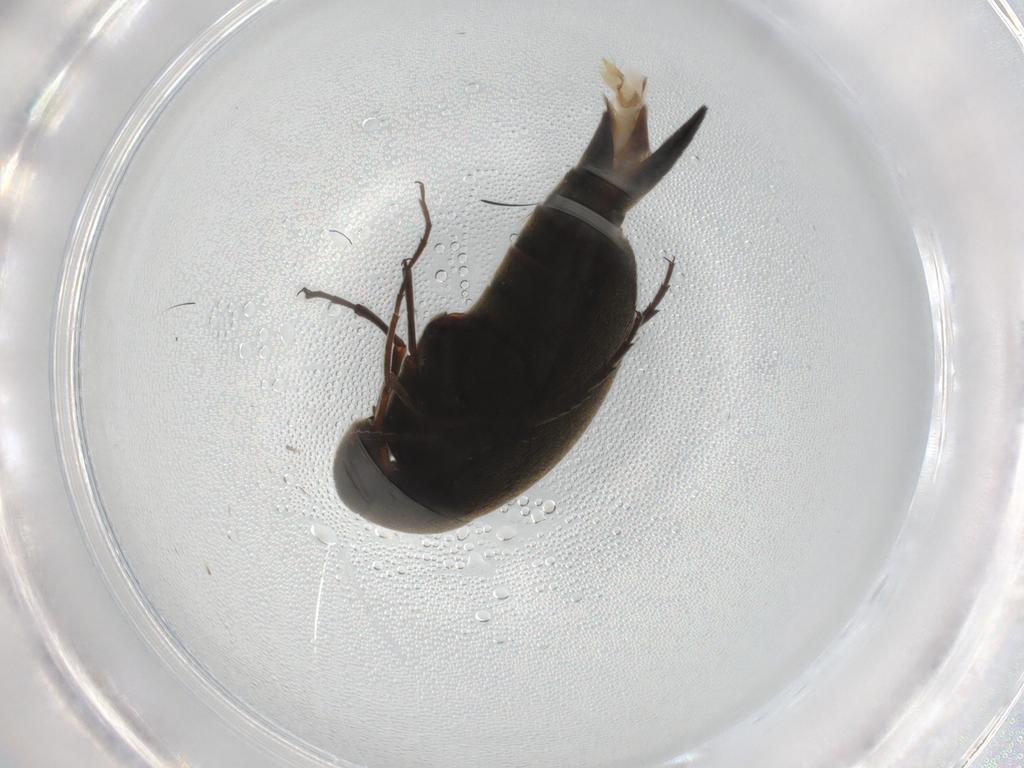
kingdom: Animalia
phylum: Arthropoda
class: Insecta
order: Coleoptera
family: Mordellidae
